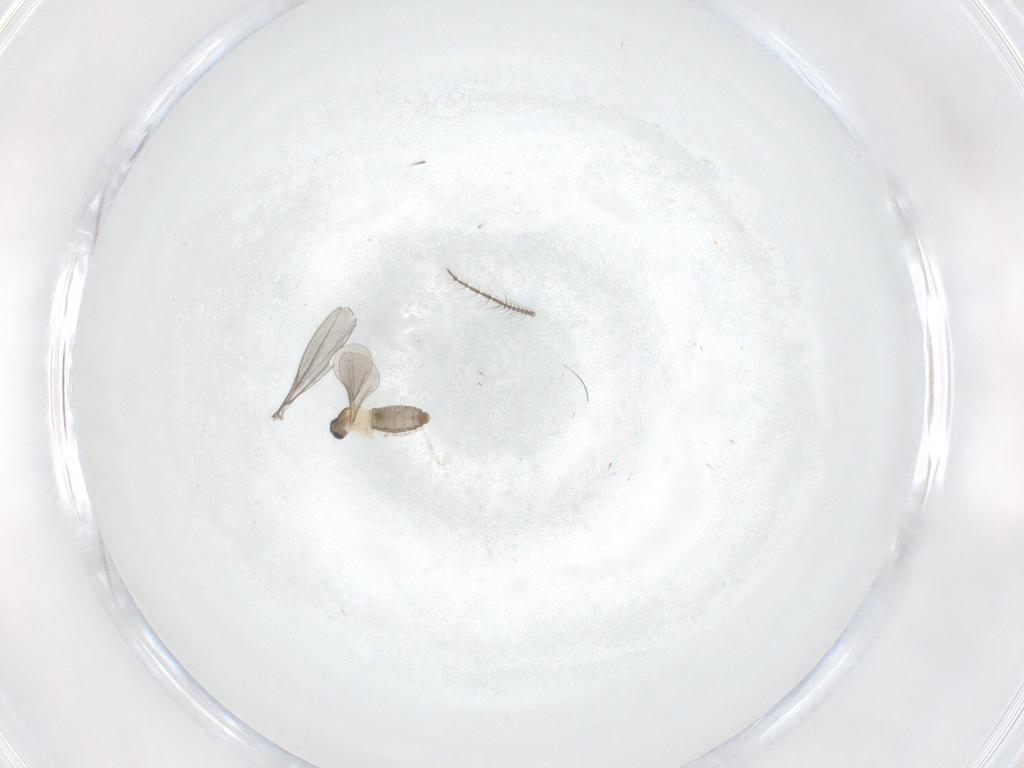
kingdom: Animalia
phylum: Arthropoda
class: Insecta
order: Diptera
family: Cecidomyiidae
